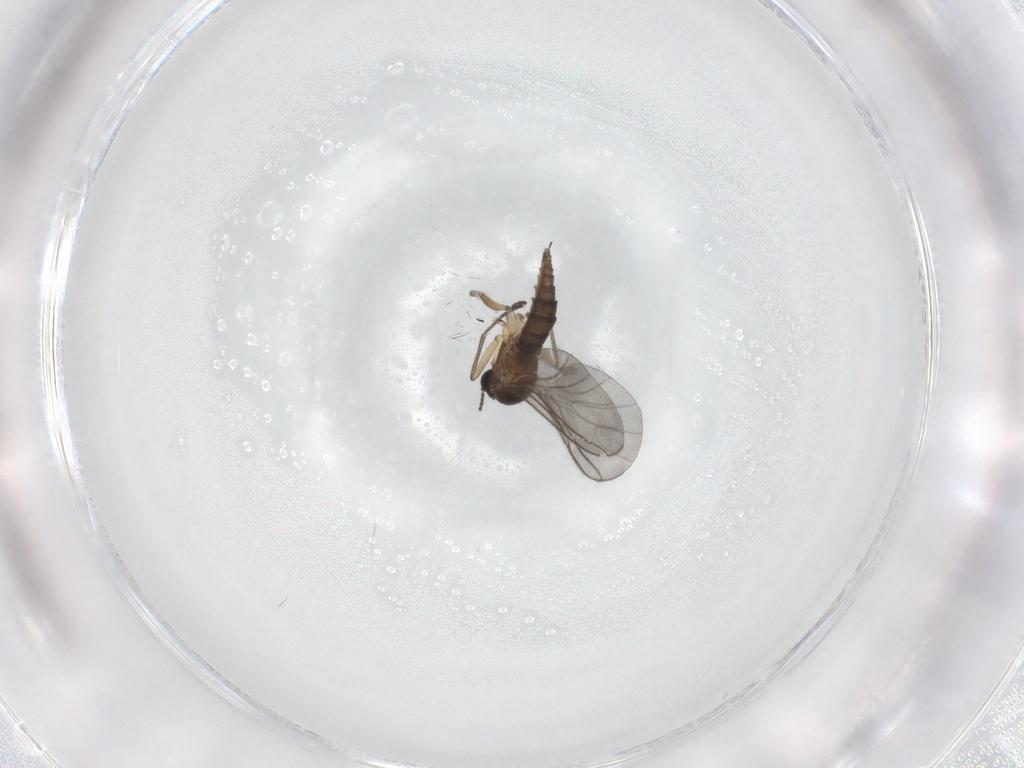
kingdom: Animalia
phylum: Arthropoda
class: Insecta
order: Diptera
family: Sciaridae
